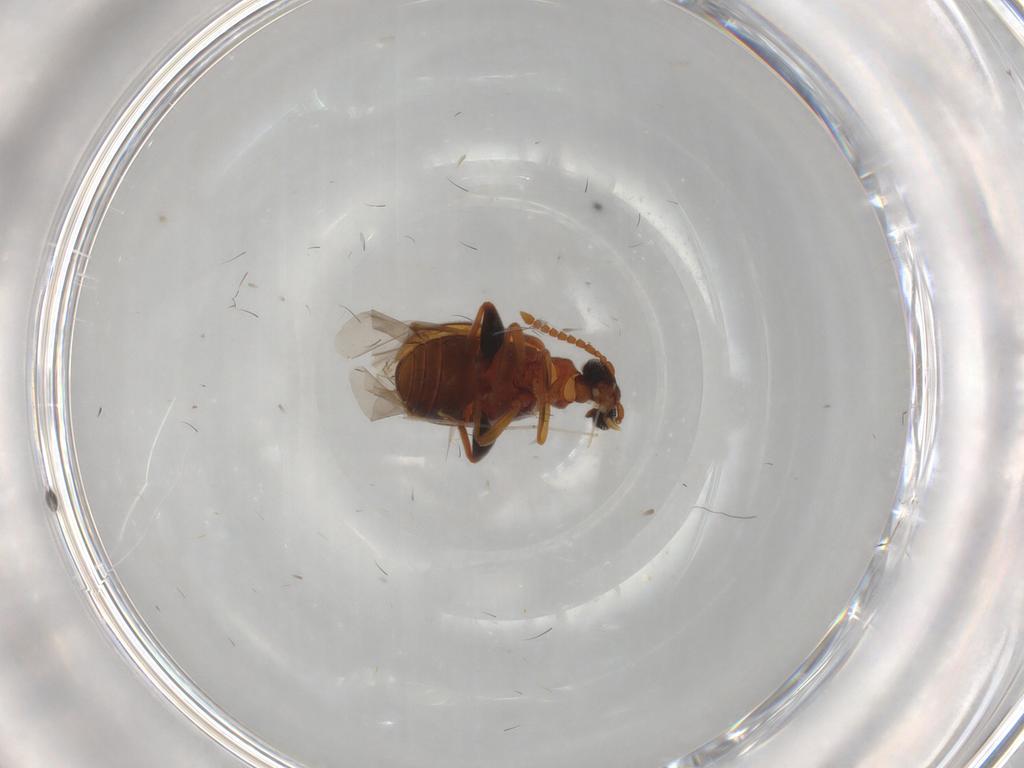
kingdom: Animalia
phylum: Arthropoda
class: Insecta
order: Coleoptera
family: Aderidae
